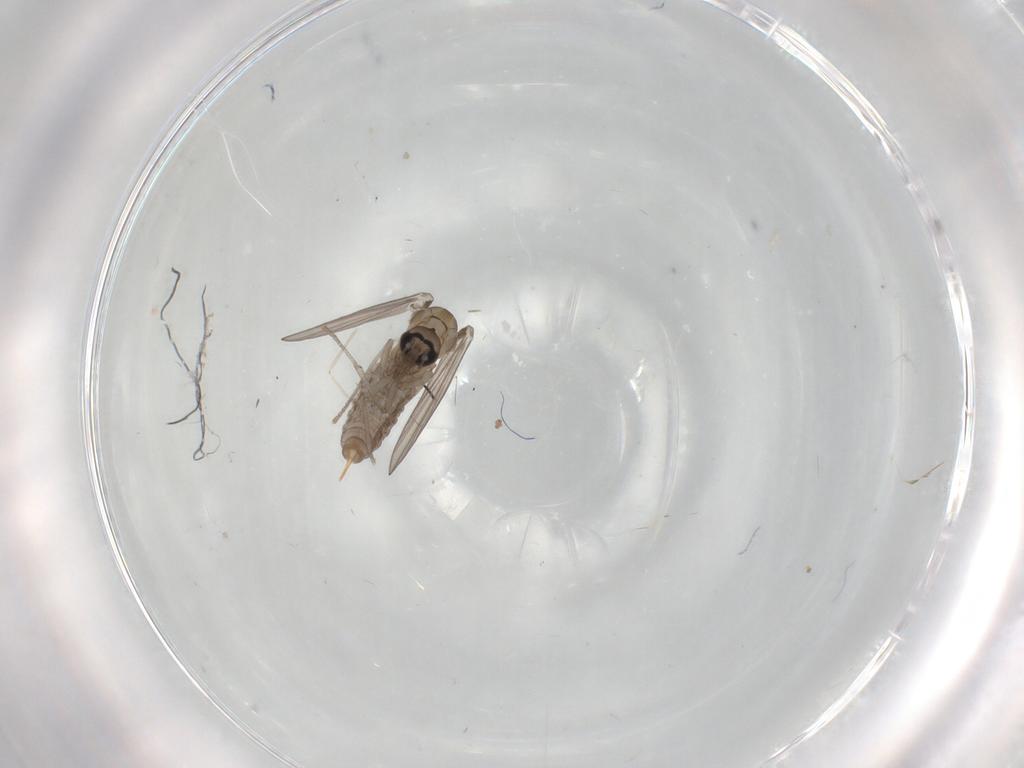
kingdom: Animalia
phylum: Arthropoda
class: Insecta
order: Diptera
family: Psychodidae
